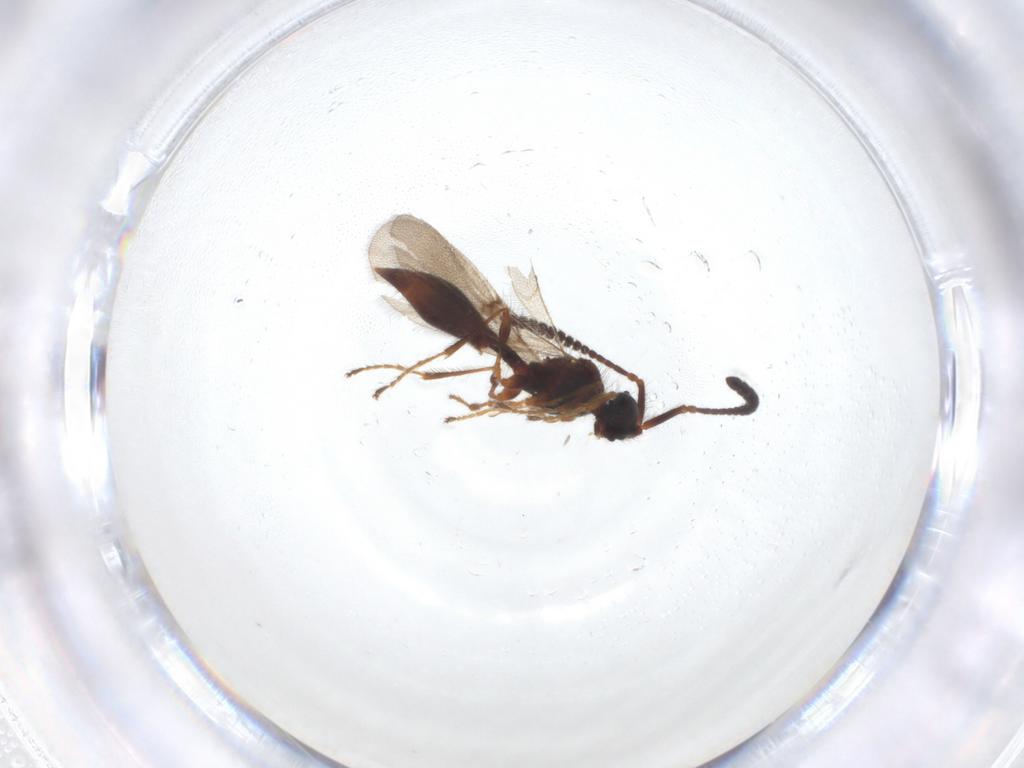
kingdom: Animalia
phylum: Arthropoda
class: Insecta
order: Hymenoptera
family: Diapriidae
